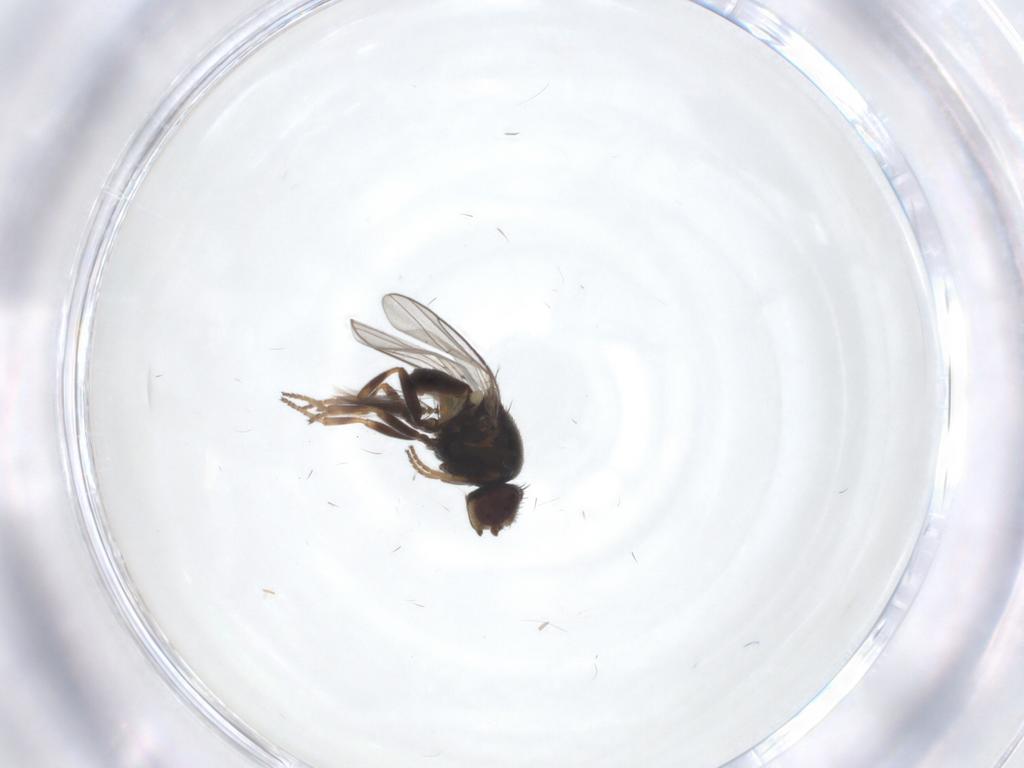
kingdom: Animalia
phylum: Arthropoda
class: Insecta
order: Diptera
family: Chloropidae
